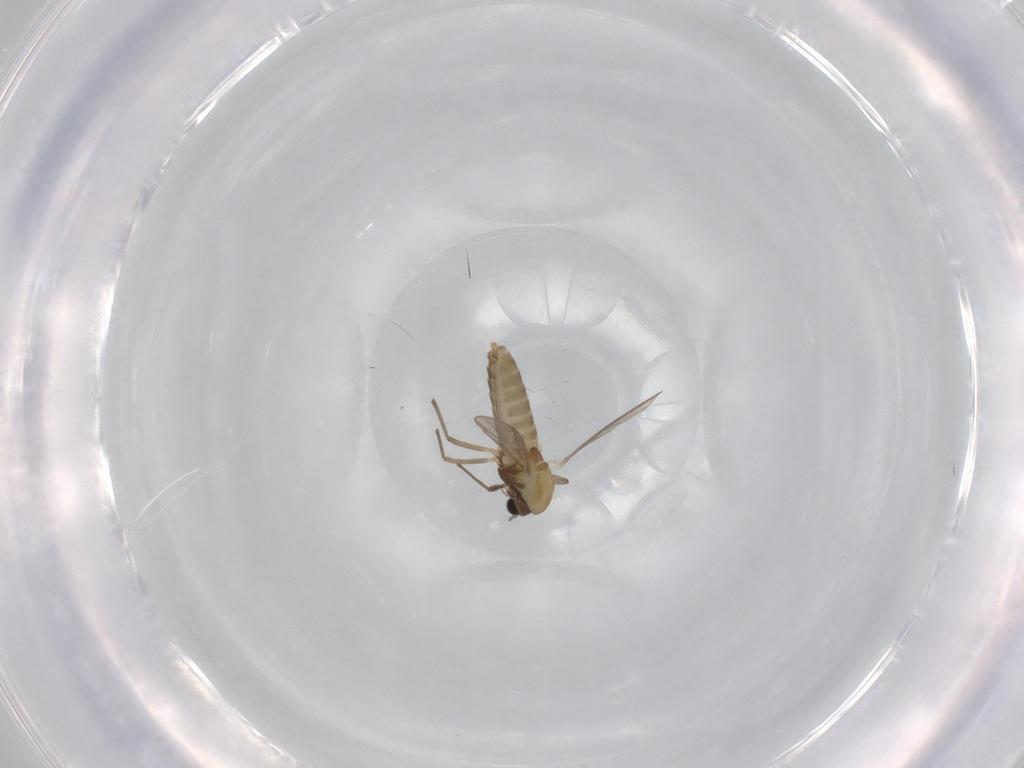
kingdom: Animalia
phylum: Arthropoda
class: Insecta
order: Diptera
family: Chironomidae
